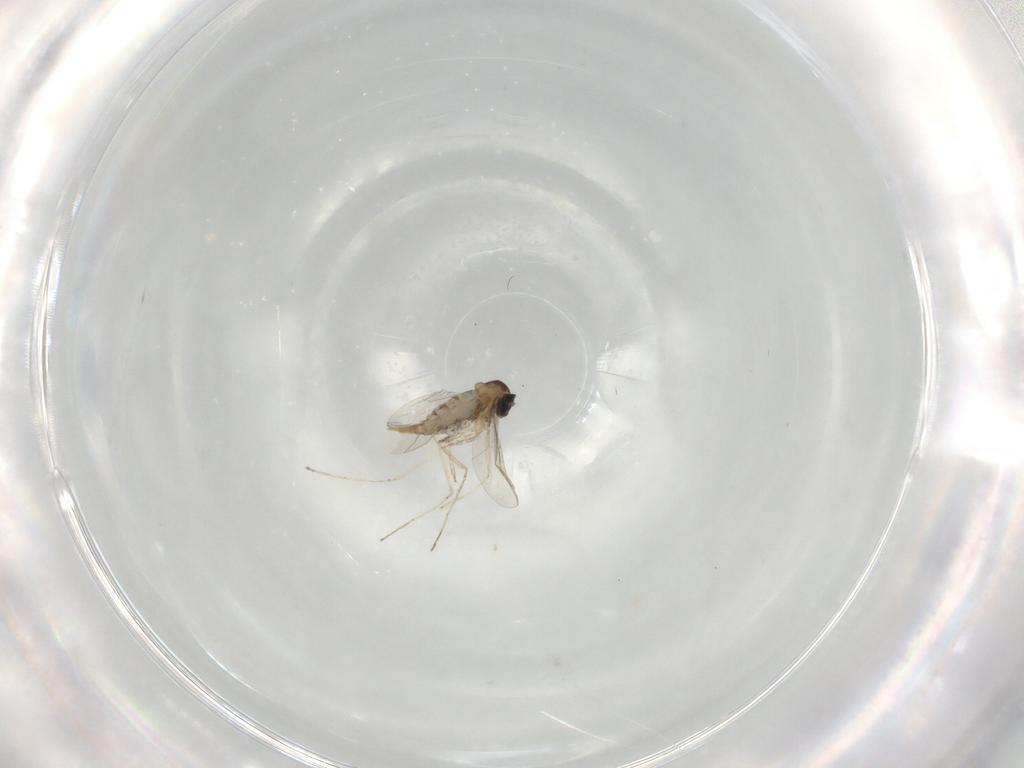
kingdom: Animalia
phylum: Arthropoda
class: Insecta
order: Diptera
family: Cecidomyiidae
